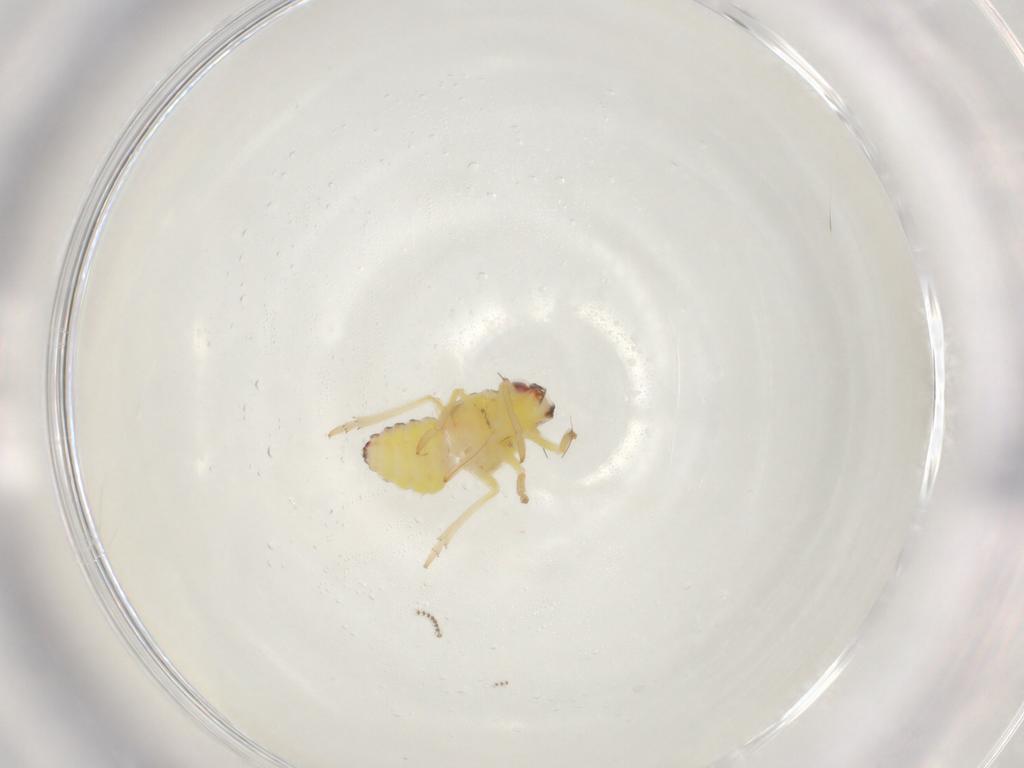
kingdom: Animalia
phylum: Arthropoda
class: Insecta
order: Hemiptera
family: Tropiduchidae
